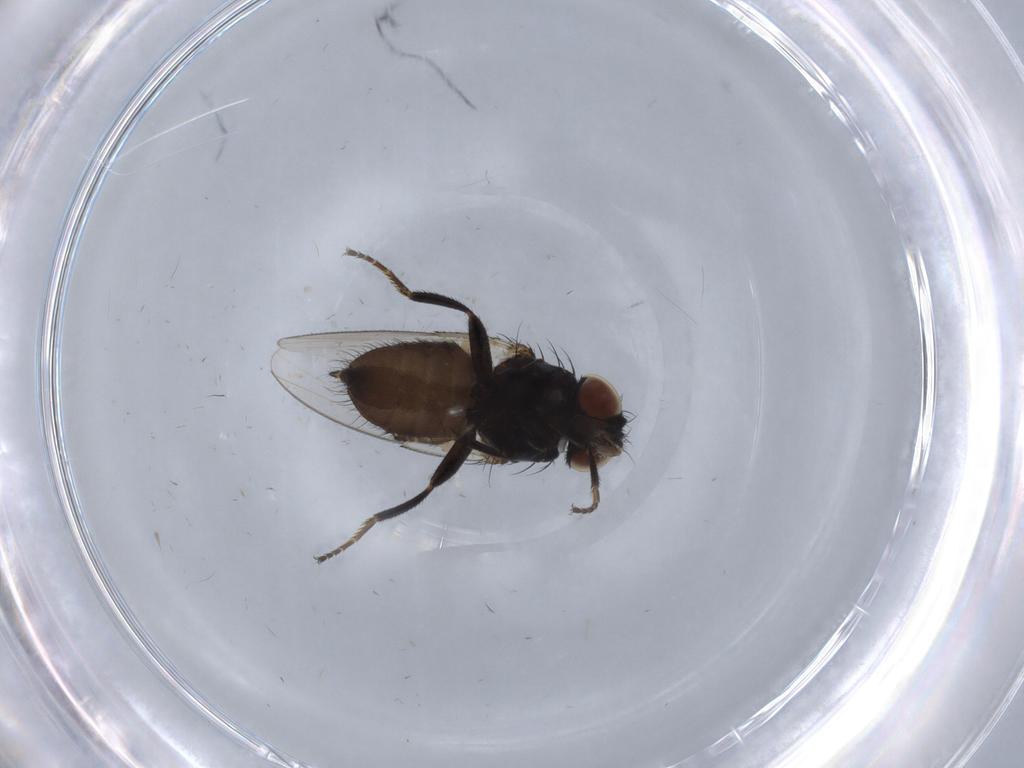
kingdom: Animalia
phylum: Arthropoda
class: Insecta
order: Diptera
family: Milichiidae
